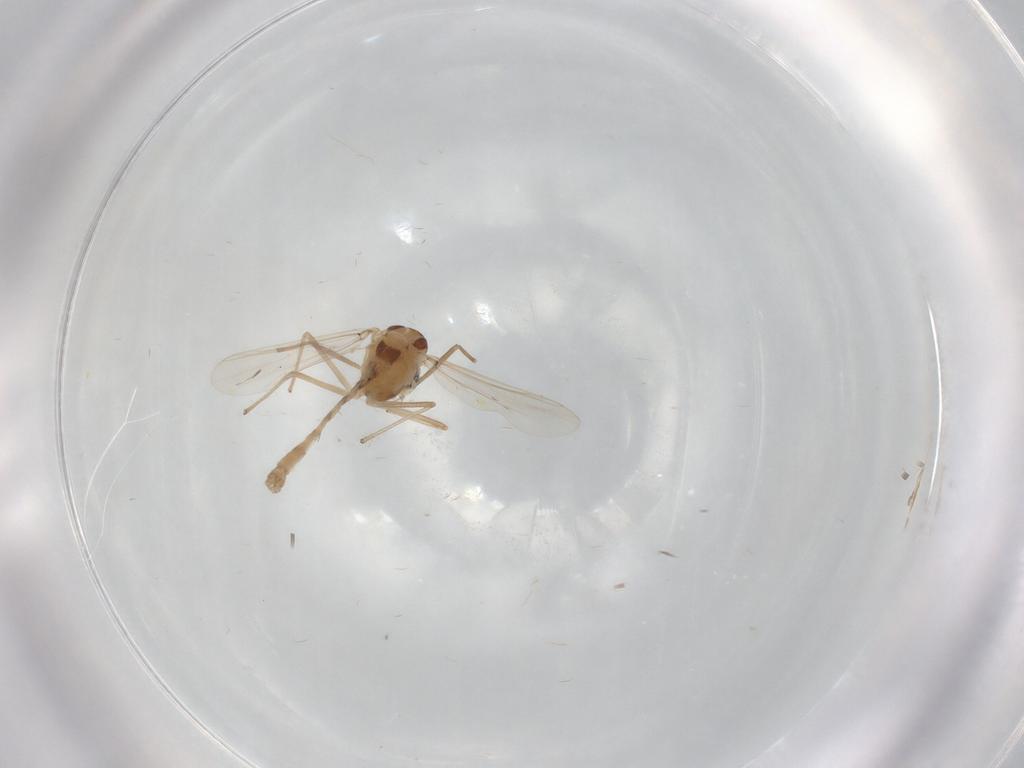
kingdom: Animalia
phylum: Arthropoda
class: Insecta
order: Diptera
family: Chironomidae
